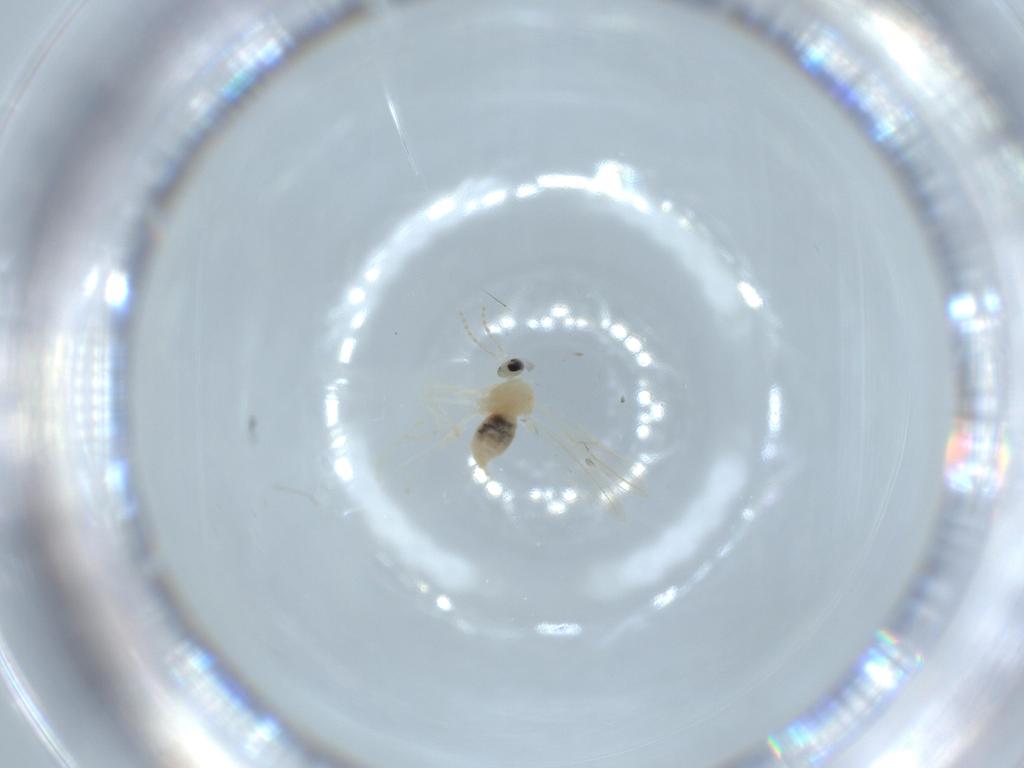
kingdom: Animalia
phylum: Arthropoda
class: Insecta
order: Diptera
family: Cecidomyiidae
